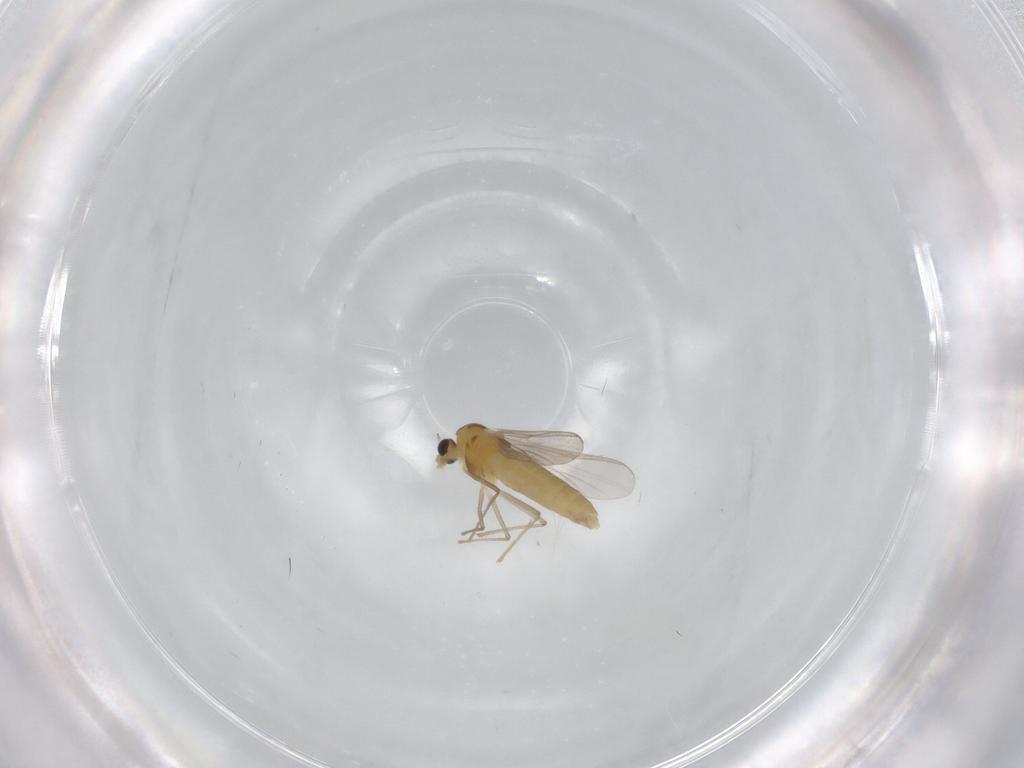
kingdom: Animalia
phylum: Arthropoda
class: Insecta
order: Diptera
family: Chironomidae
